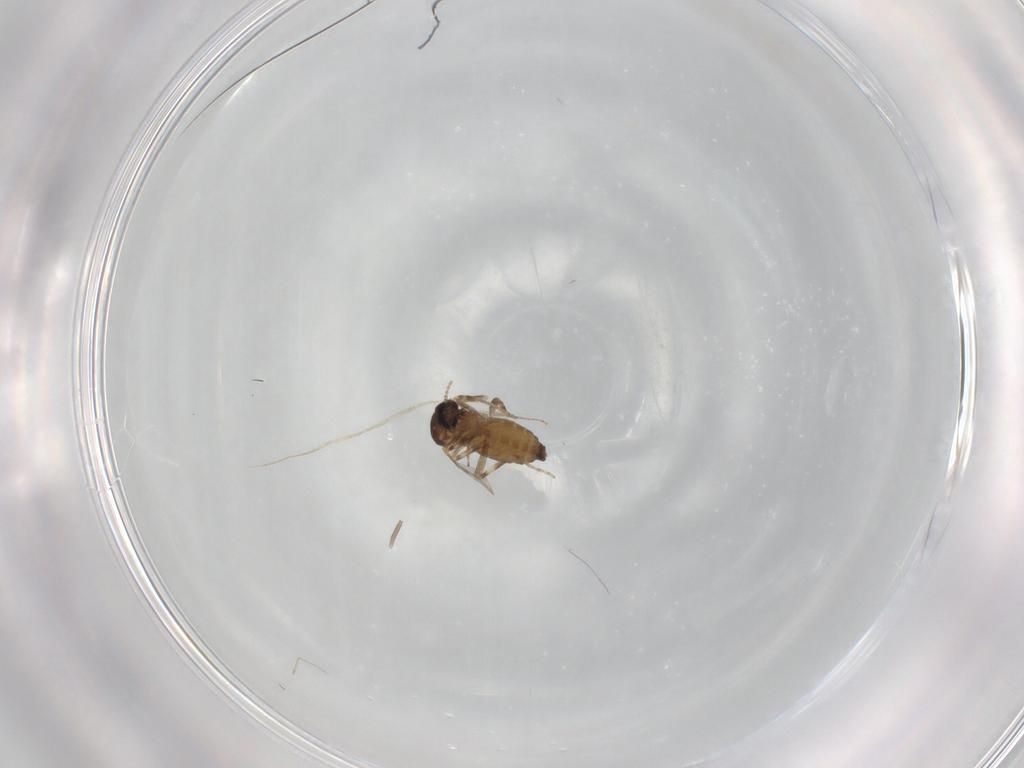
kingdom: Animalia
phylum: Arthropoda
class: Insecta
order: Diptera
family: Ceratopogonidae
